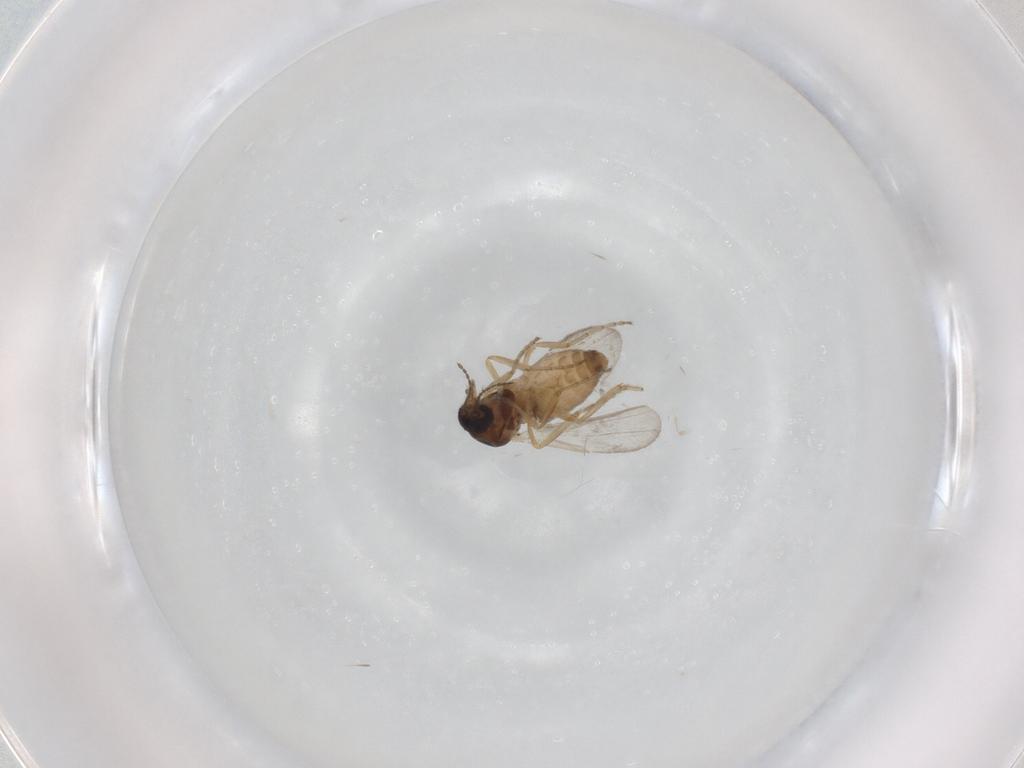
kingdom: Animalia
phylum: Arthropoda
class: Insecta
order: Diptera
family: Ceratopogonidae
